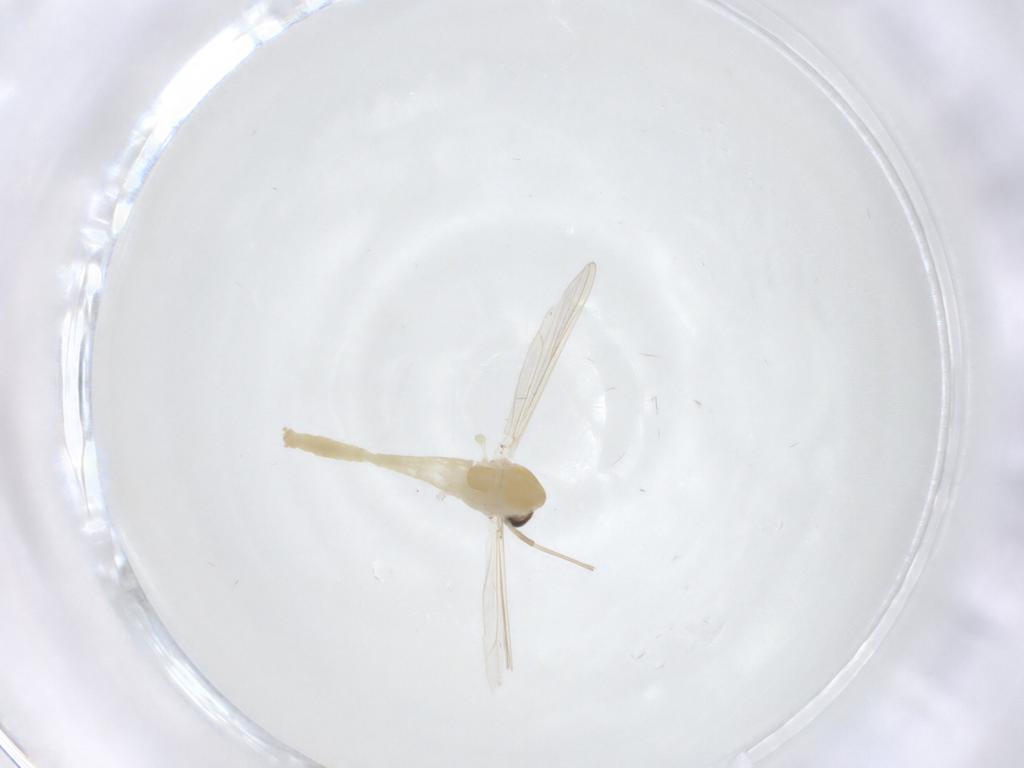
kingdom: Animalia
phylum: Arthropoda
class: Insecta
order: Diptera
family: Chironomidae
